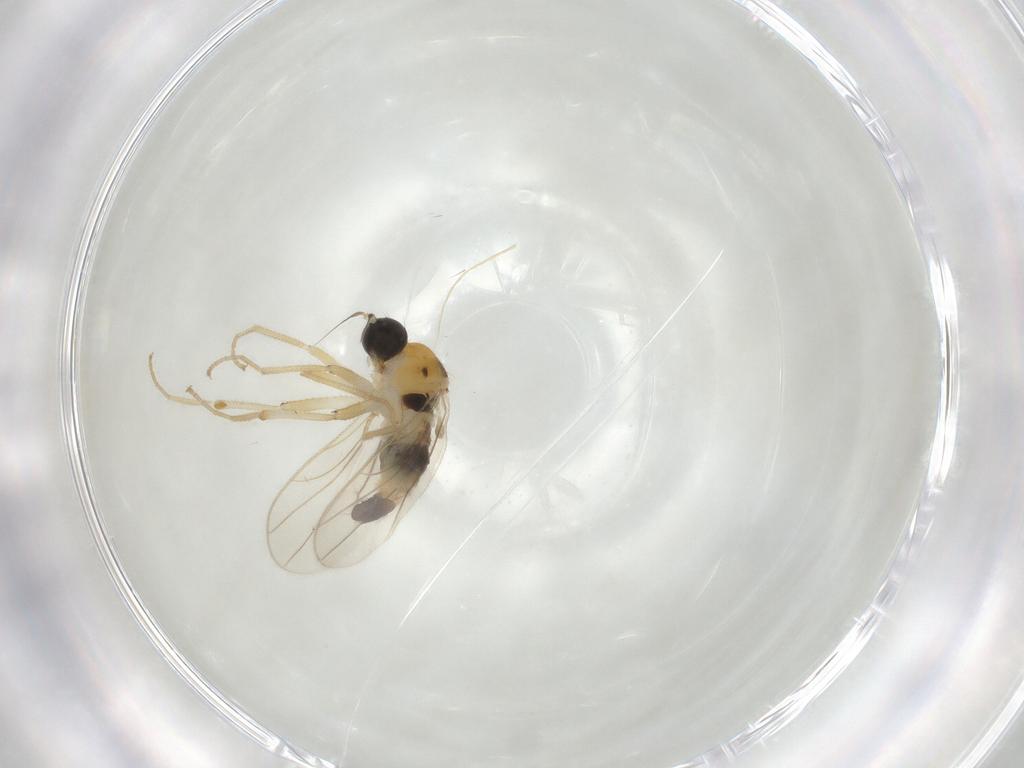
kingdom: Animalia
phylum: Arthropoda
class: Insecta
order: Diptera
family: Hybotidae
